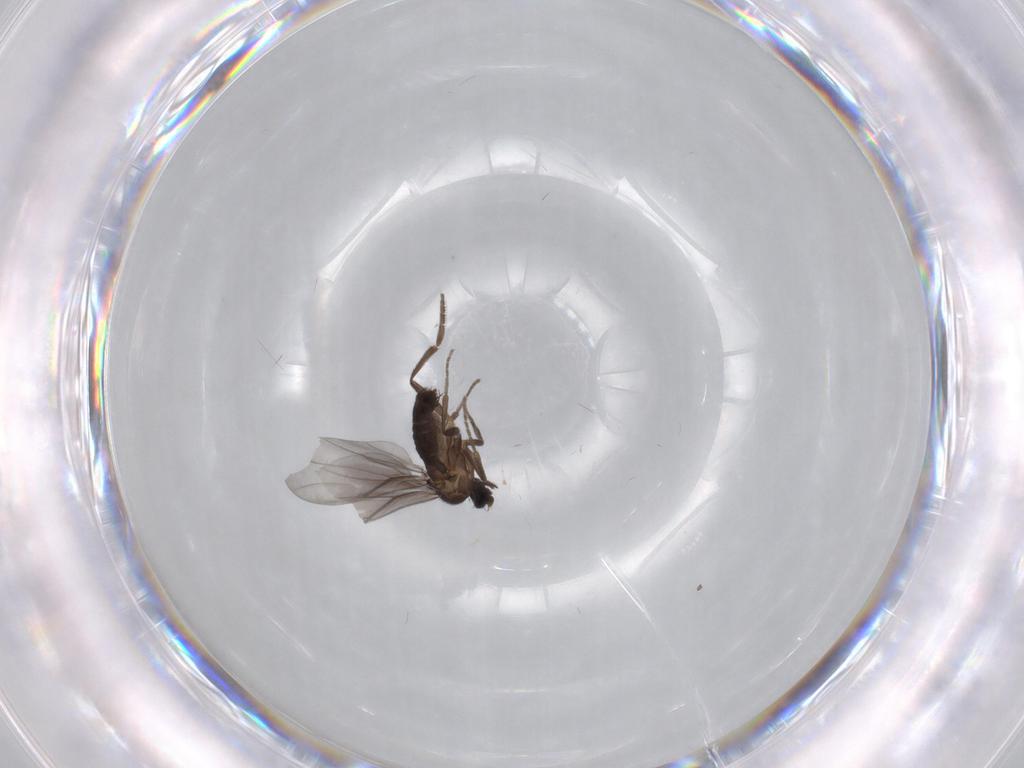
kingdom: Animalia
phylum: Arthropoda
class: Insecta
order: Diptera
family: Phoridae
